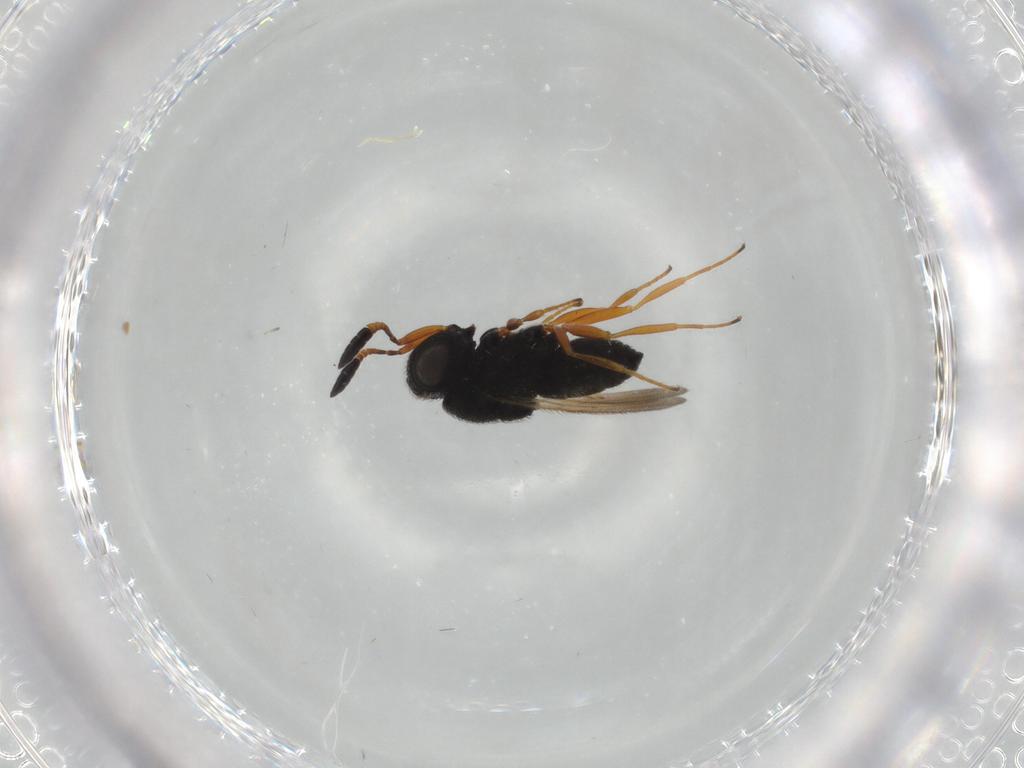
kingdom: Animalia
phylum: Arthropoda
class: Insecta
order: Hymenoptera
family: Scelionidae
